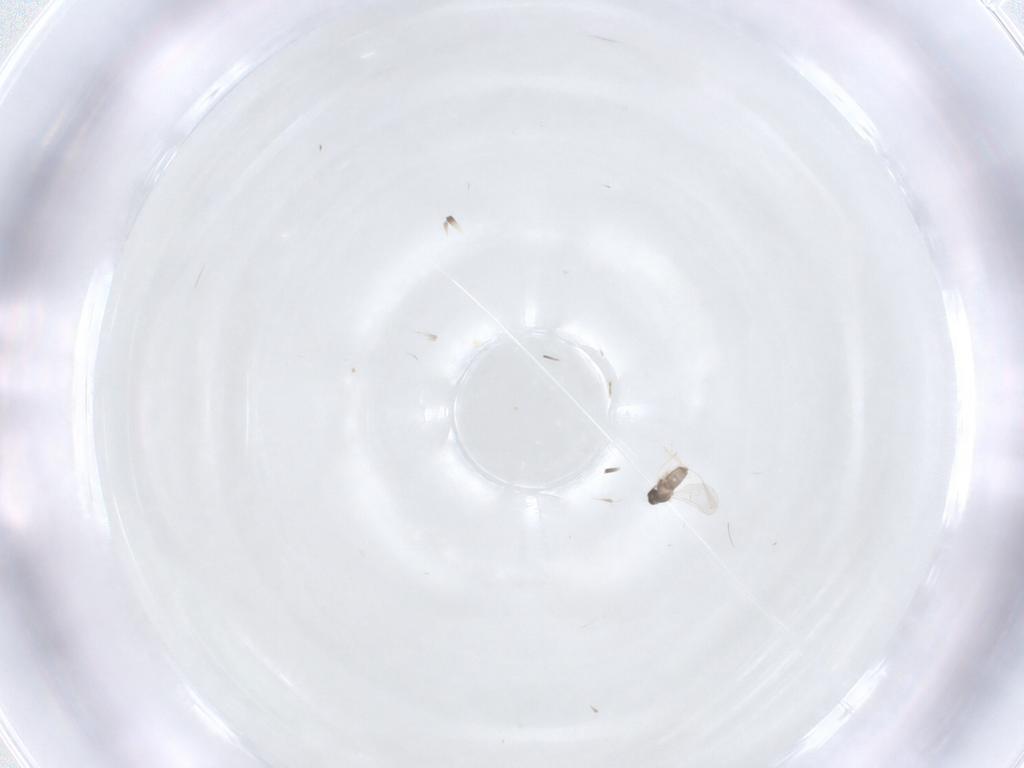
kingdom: Animalia
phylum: Arthropoda
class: Insecta
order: Diptera
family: Cecidomyiidae
